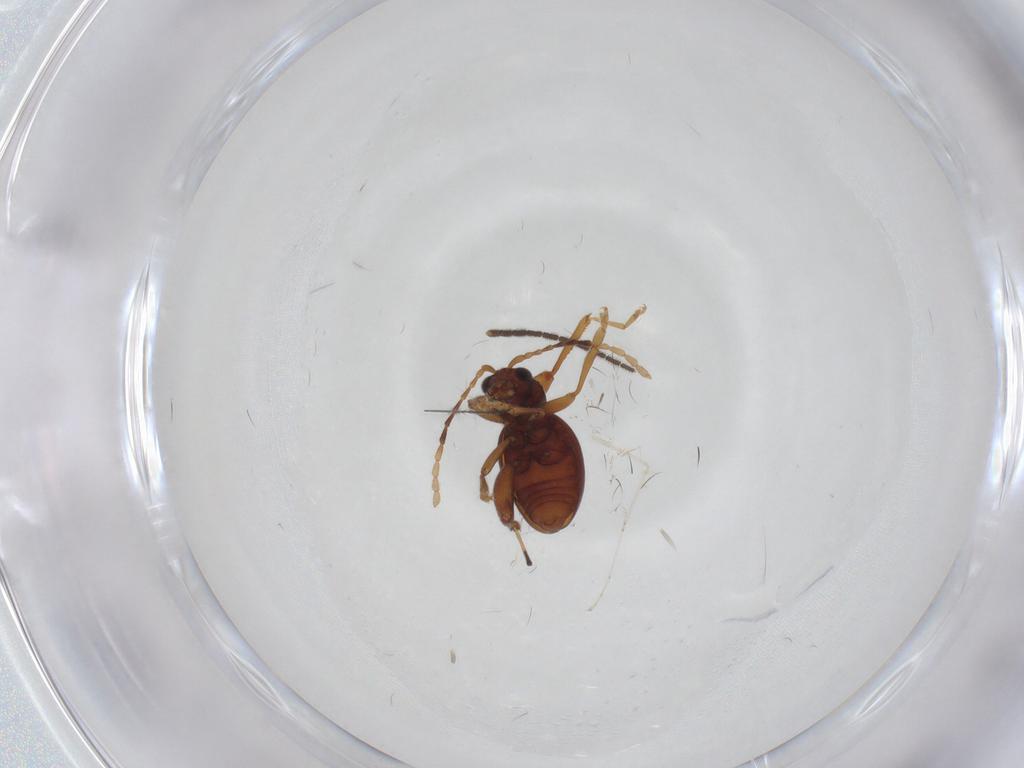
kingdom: Animalia
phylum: Arthropoda
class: Insecta
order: Coleoptera
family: Chrysomelidae
